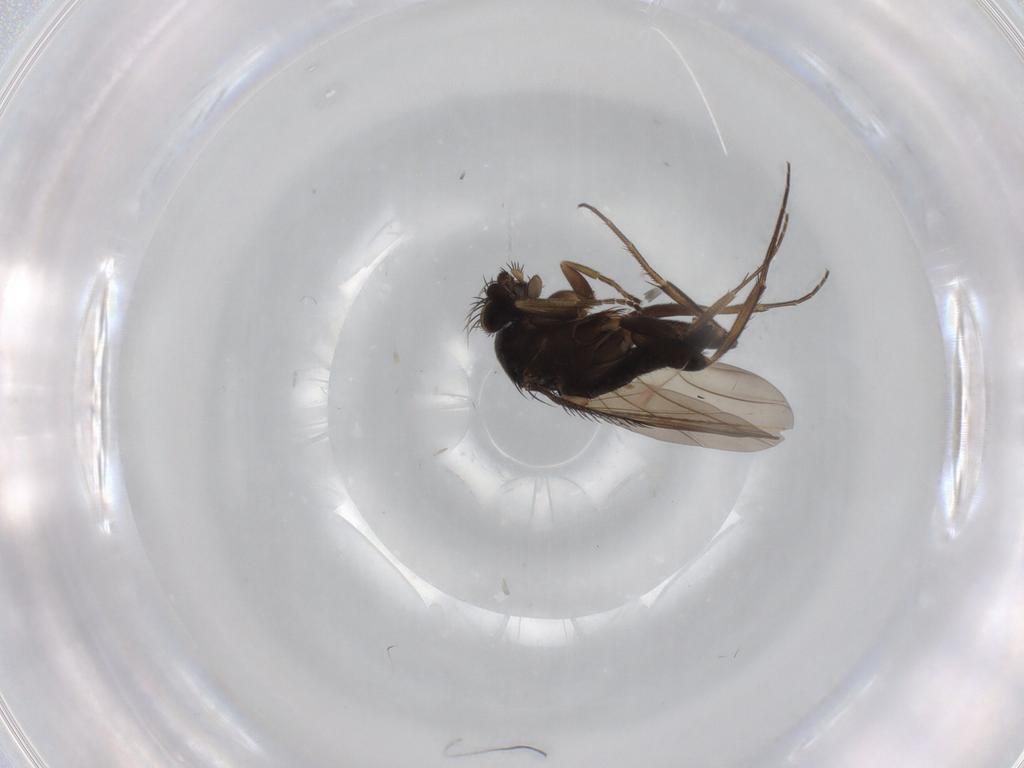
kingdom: Animalia
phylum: Arthropoda
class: Insecta
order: Diptera
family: Phoridae
